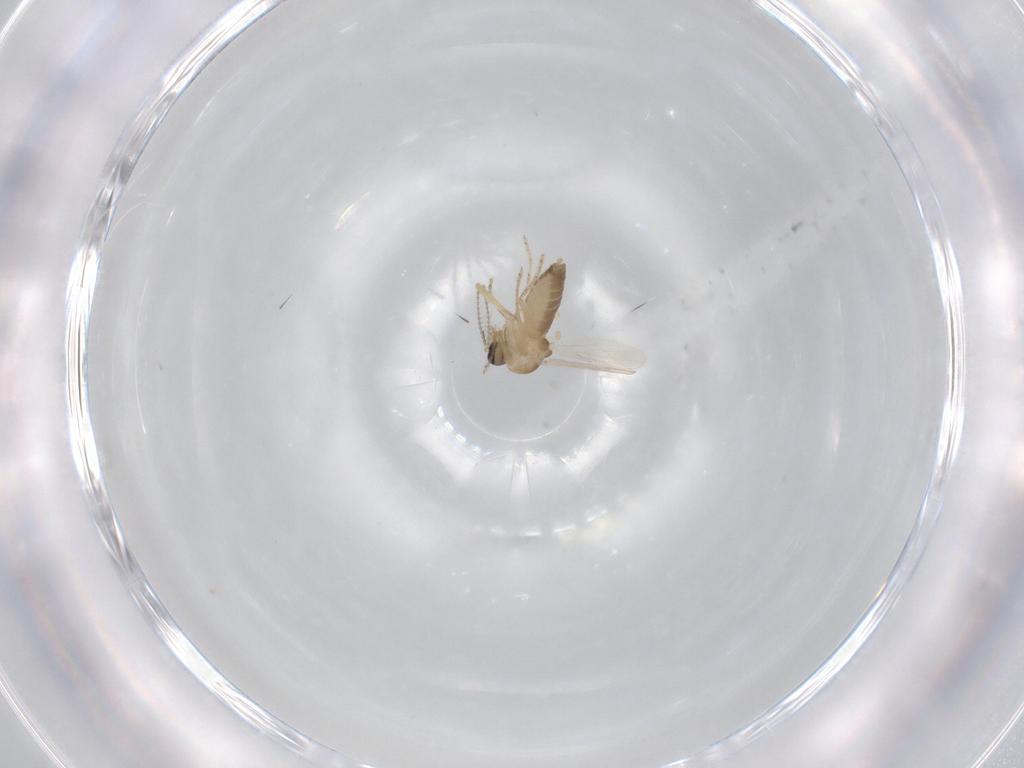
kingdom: Animalia
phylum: Arthropoda
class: Insecta
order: Diptera
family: Ceratopogonidae
